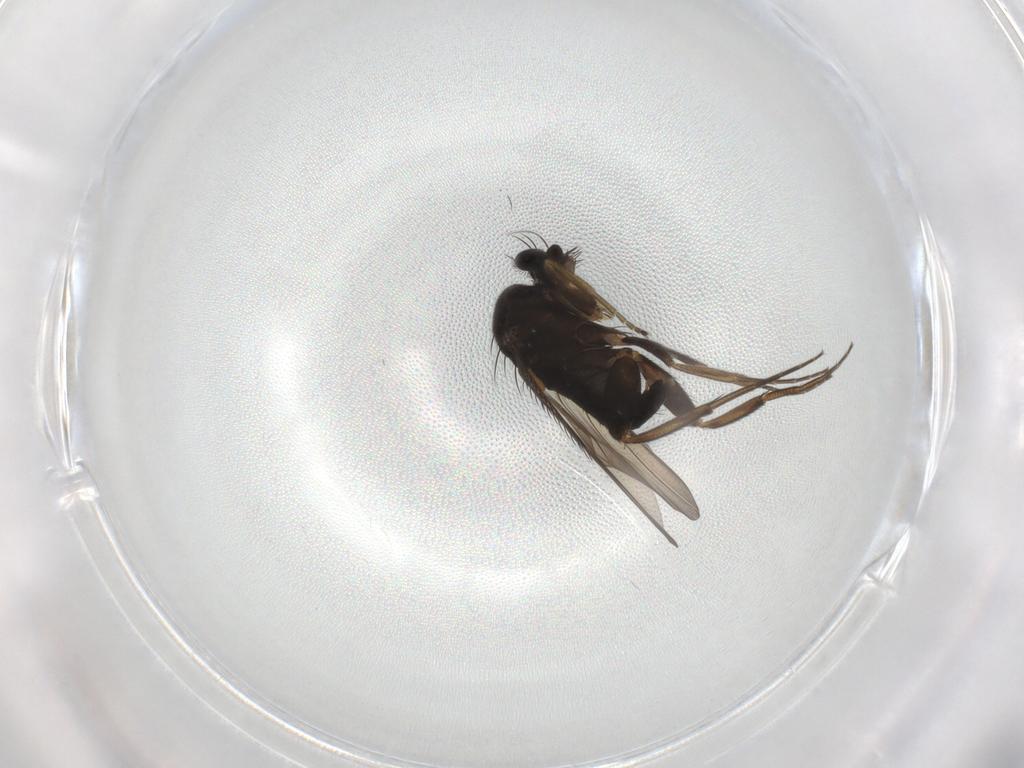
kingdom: Animalia
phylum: Arthropoda
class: Insecta
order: Diptera
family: Phoridae
